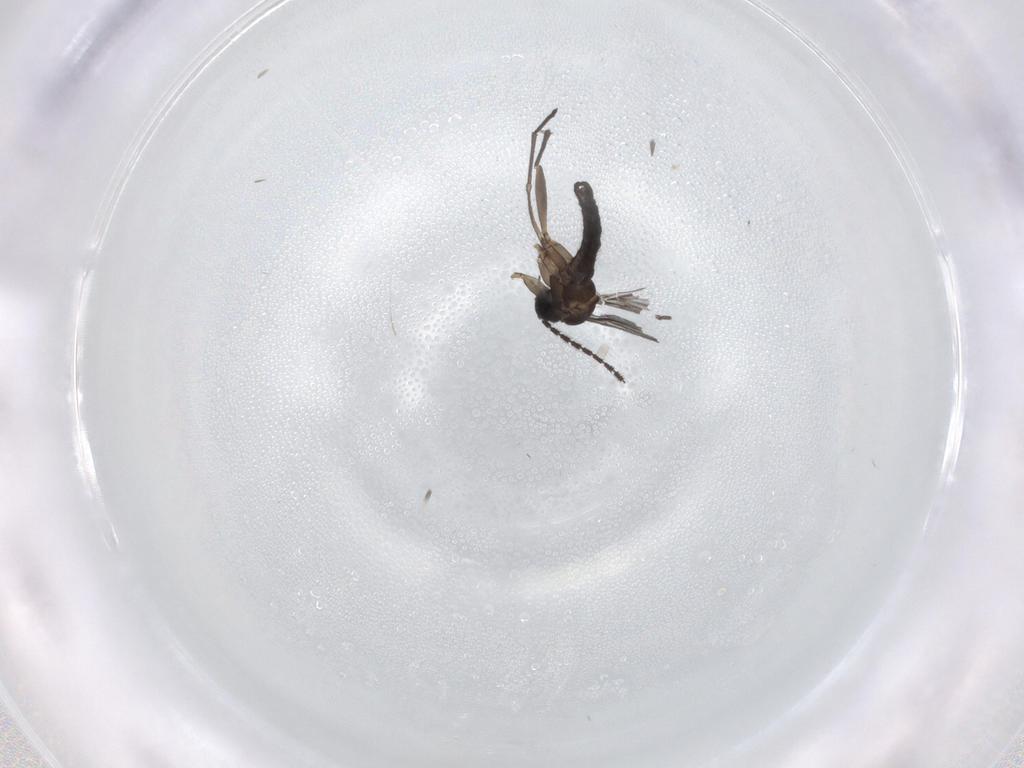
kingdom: Animalia
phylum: Arthropoda
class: Insecta
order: Diptera
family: Sciaridae
